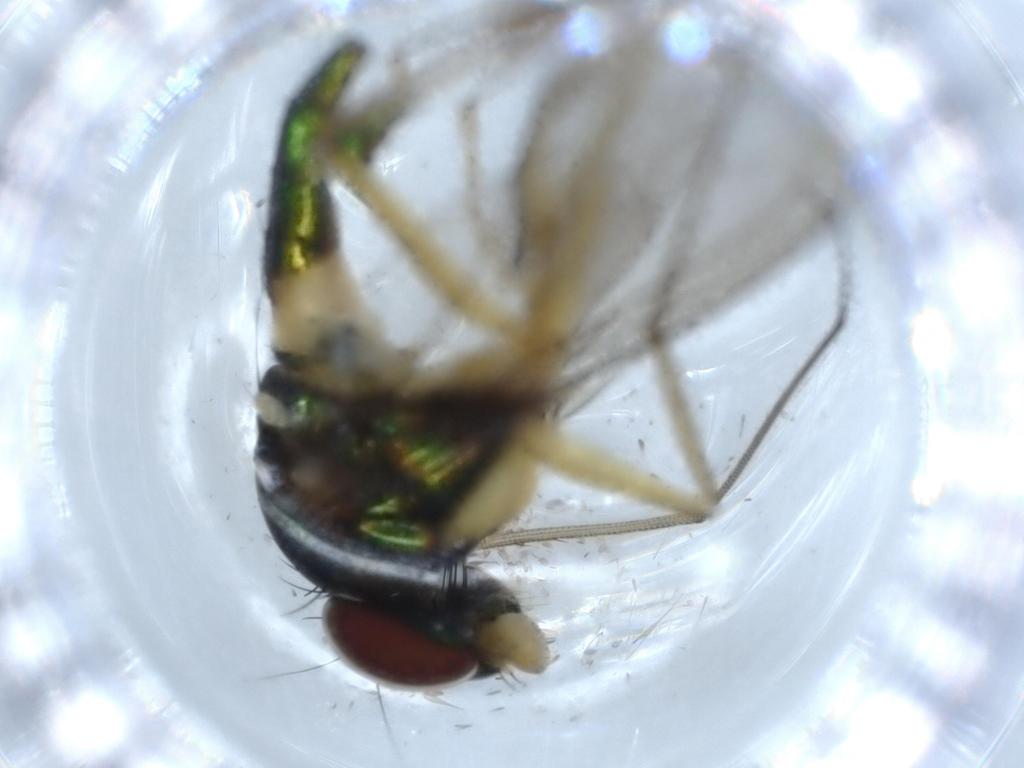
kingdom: Animalia
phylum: Arthropoda
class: Insecta
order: Diptera
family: Dolichopodidae
